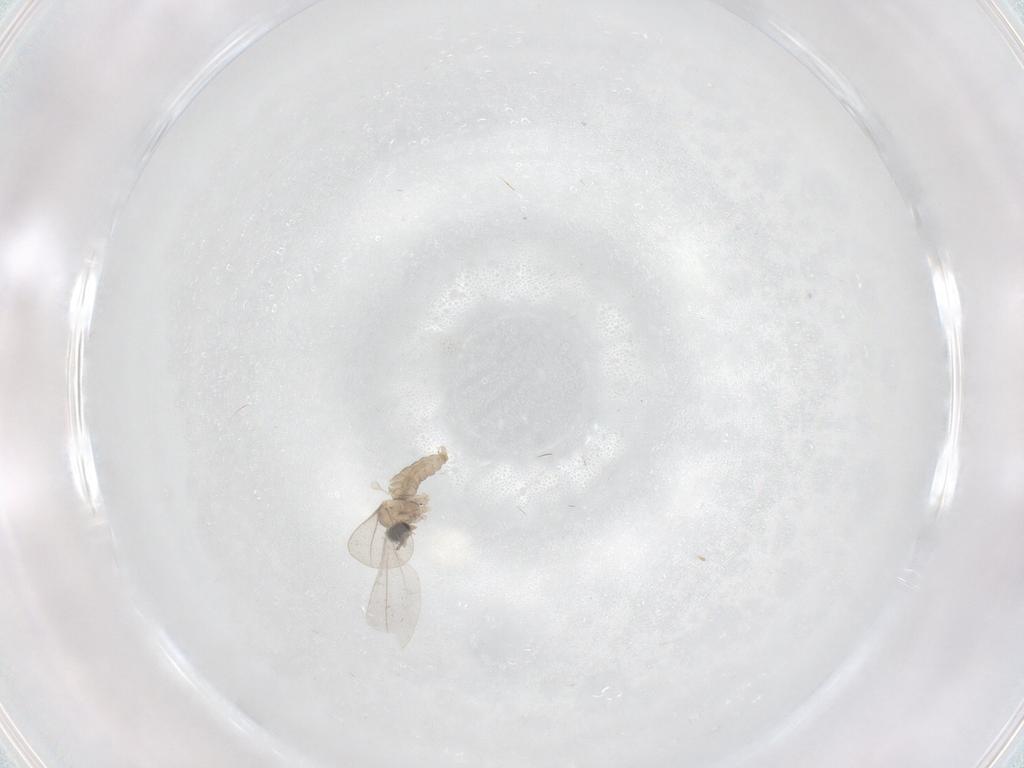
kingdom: Animalia
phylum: Arthropoda
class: Insecta
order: Diptera
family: Cecidomyiidae
